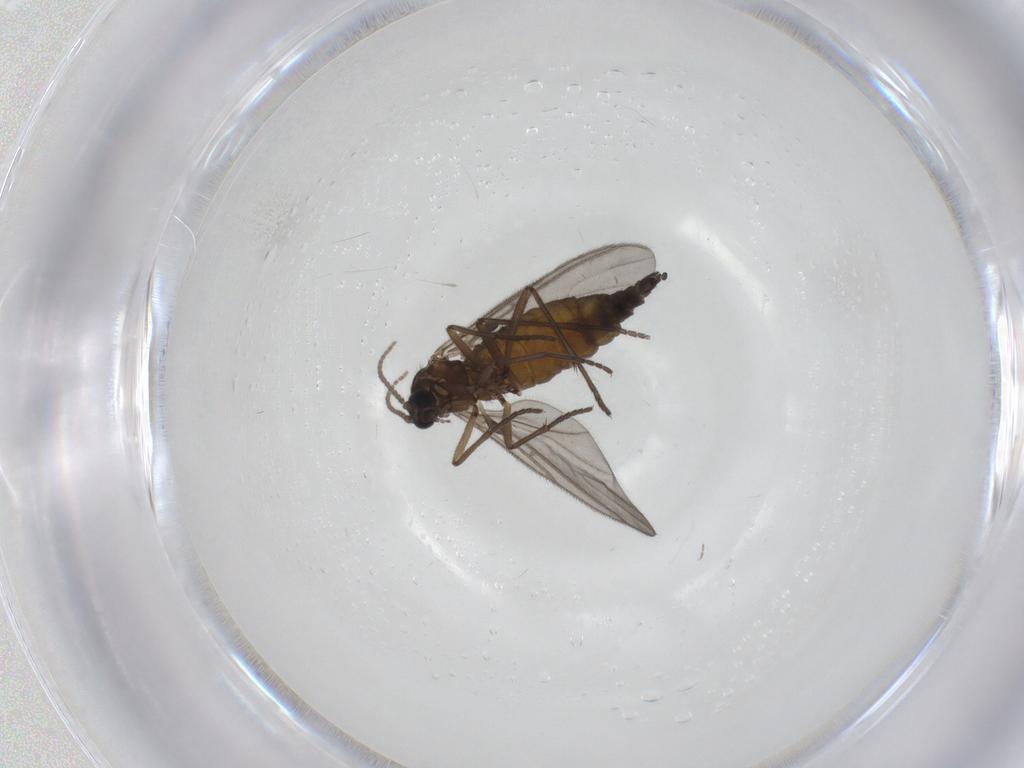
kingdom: Animalia
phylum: Arthropoda
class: Insecta
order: Diptera
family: Sciaridae
